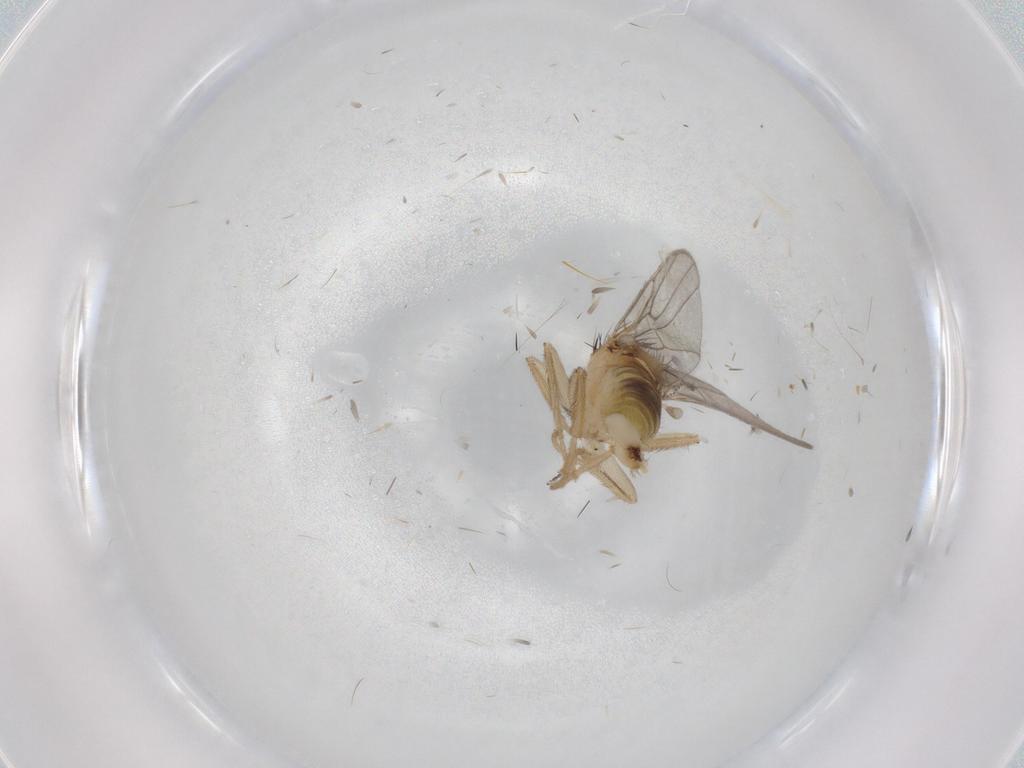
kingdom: Animalia
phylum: Arthropoda
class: Insecta
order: Diptera
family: Hybotidae
